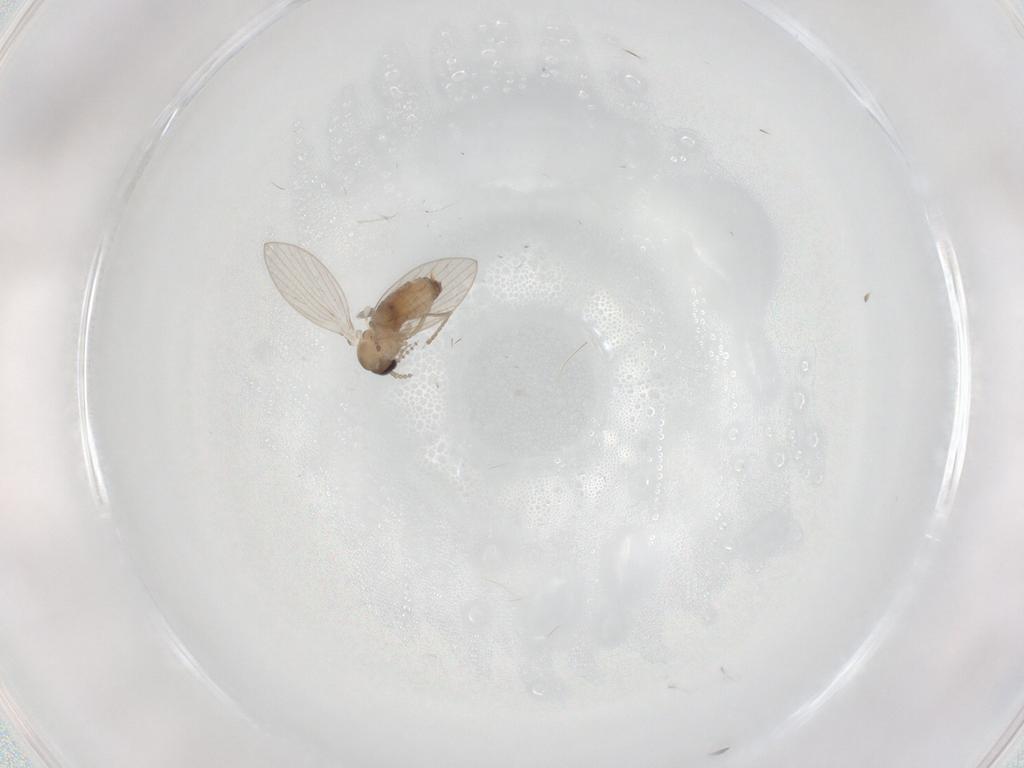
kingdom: Animalia
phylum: Arthropoda
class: Insecta
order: Diptera
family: Psychodidae
